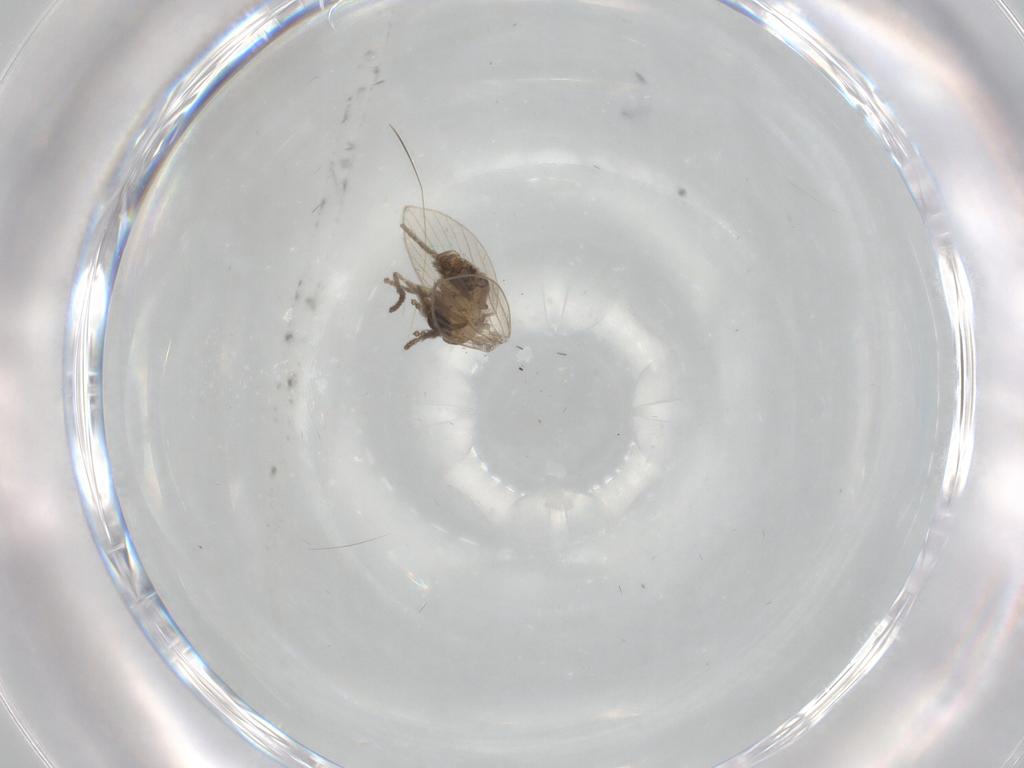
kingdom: Animalia
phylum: Arthropoda
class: Insecta
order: Diptera
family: Psychodidae
